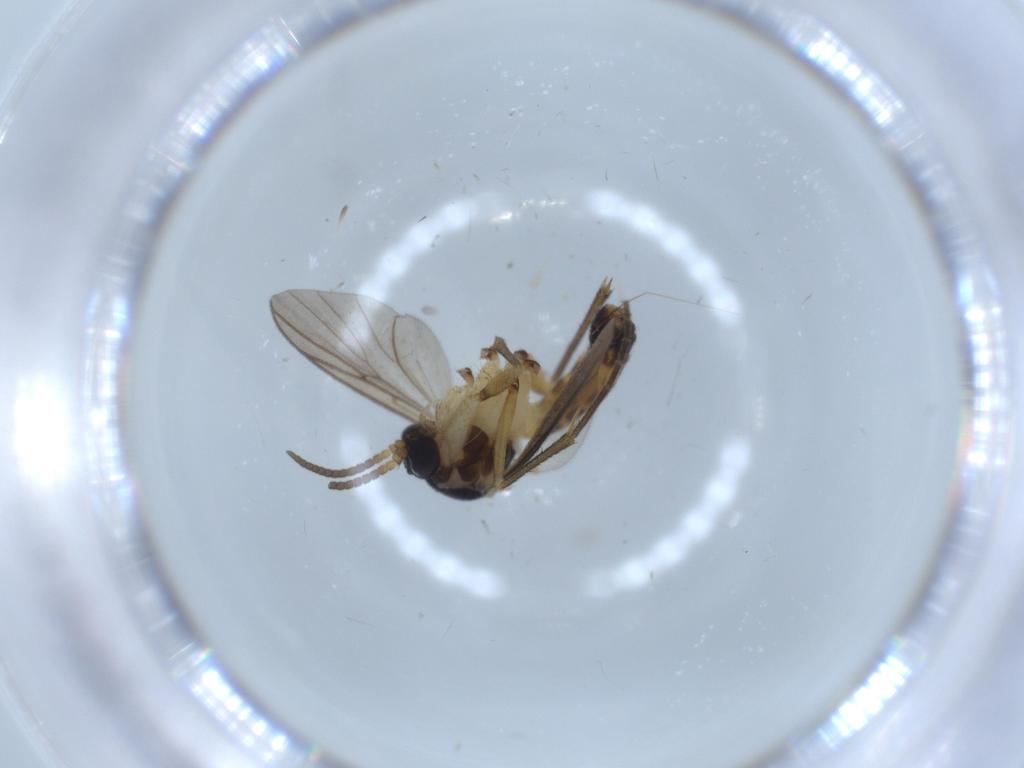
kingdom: Animalia
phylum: Arthropoda
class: Insecta
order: Diptera
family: Mycetophilidae
